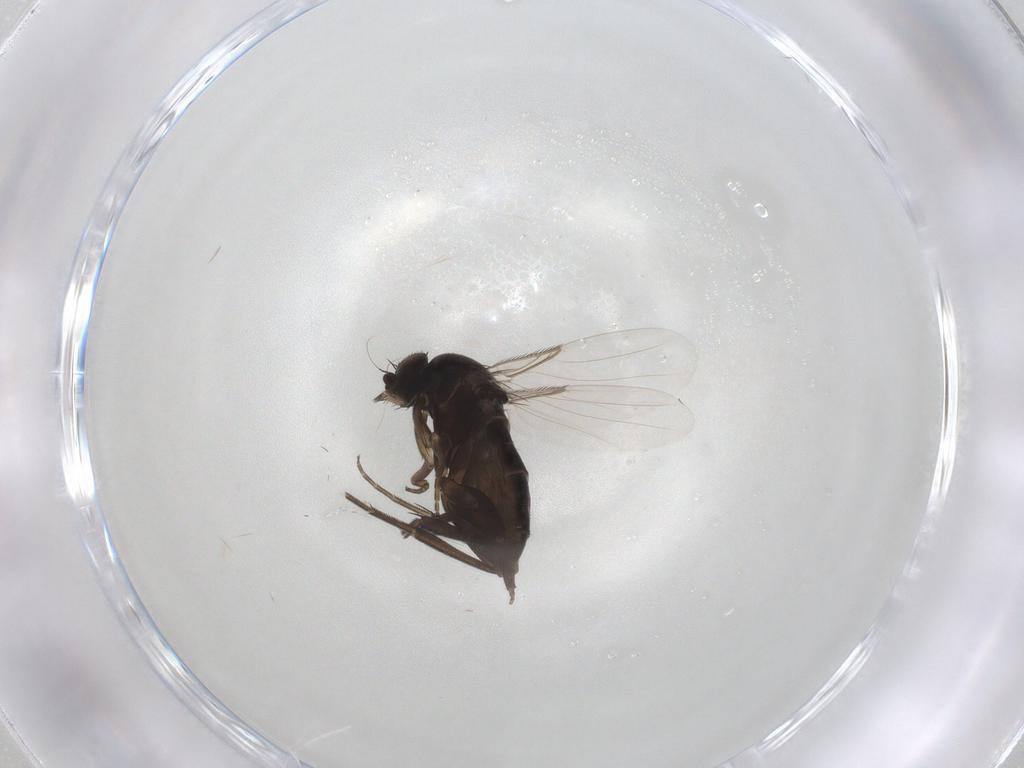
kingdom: Animalia
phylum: Arthropoda
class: Insecta
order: Diptera
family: Phoridae
